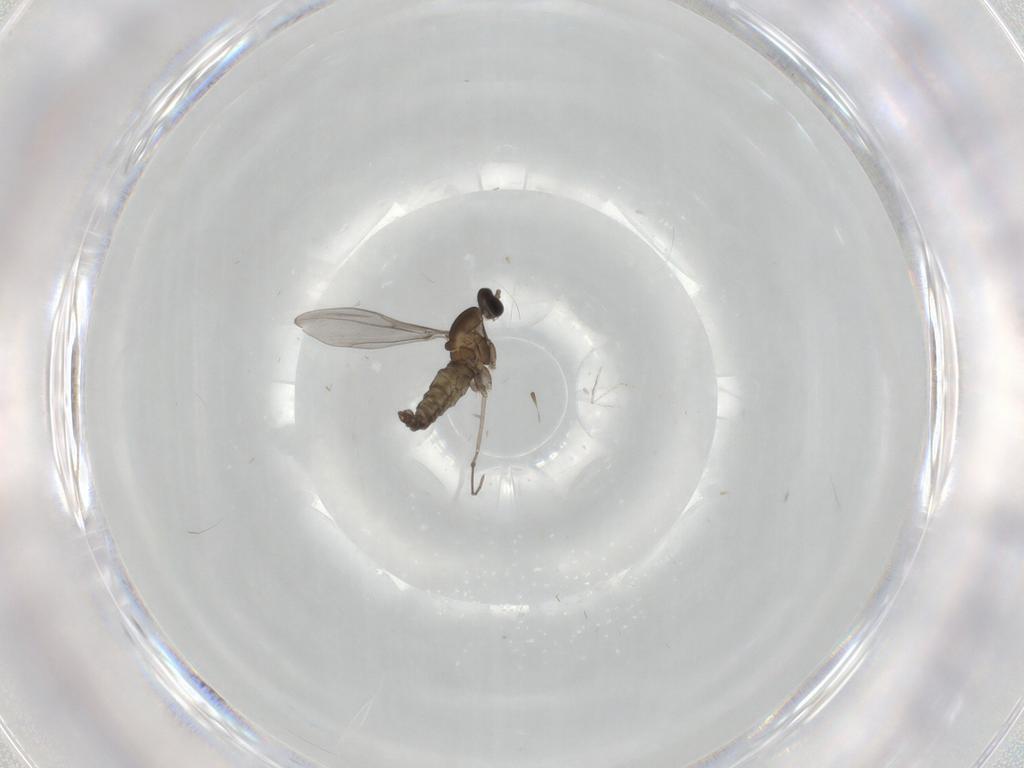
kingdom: Animalia
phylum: Arthropoda
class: Insecta
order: Diptera
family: Cecidomyiidae
